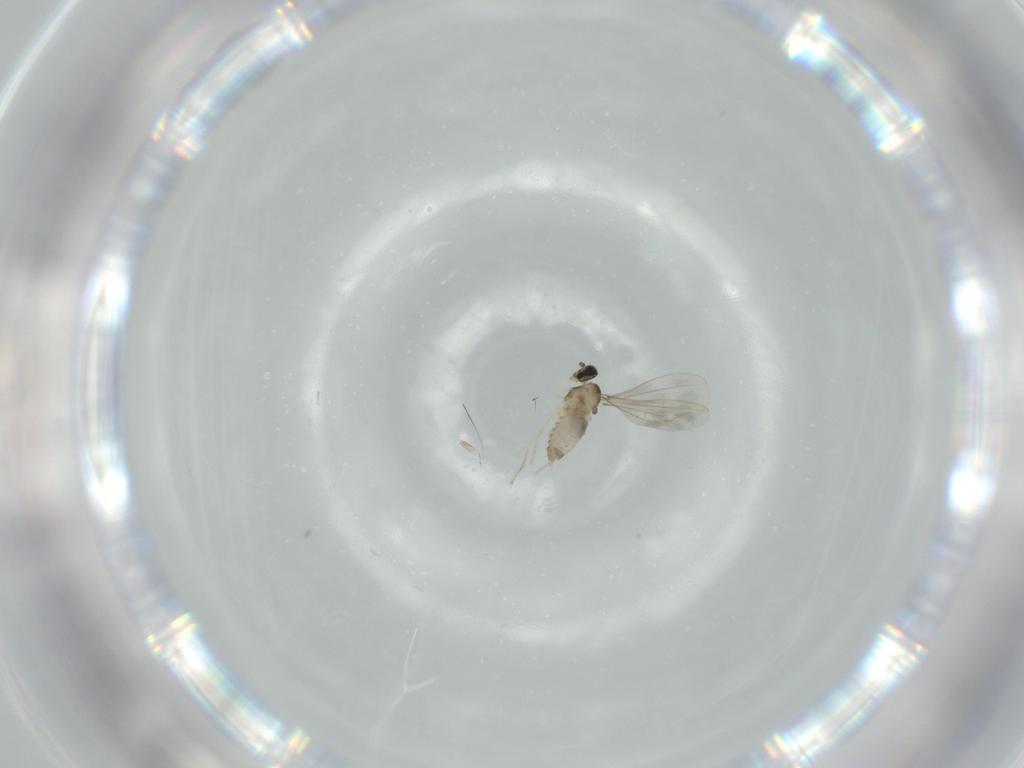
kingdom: Animalia
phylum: Arthropoda
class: Insecta
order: Diptera
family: Cecidomyiidae
